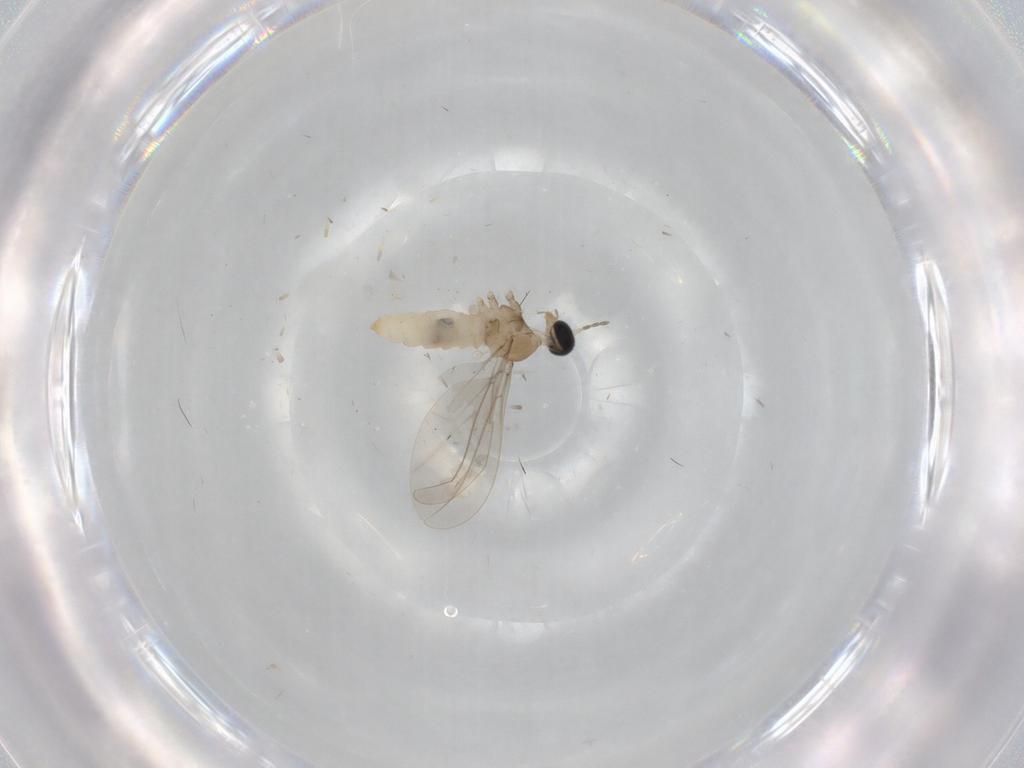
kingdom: Animalia
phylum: Arthropoda
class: Insecta
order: Diptera
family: Cecidomyiidae
